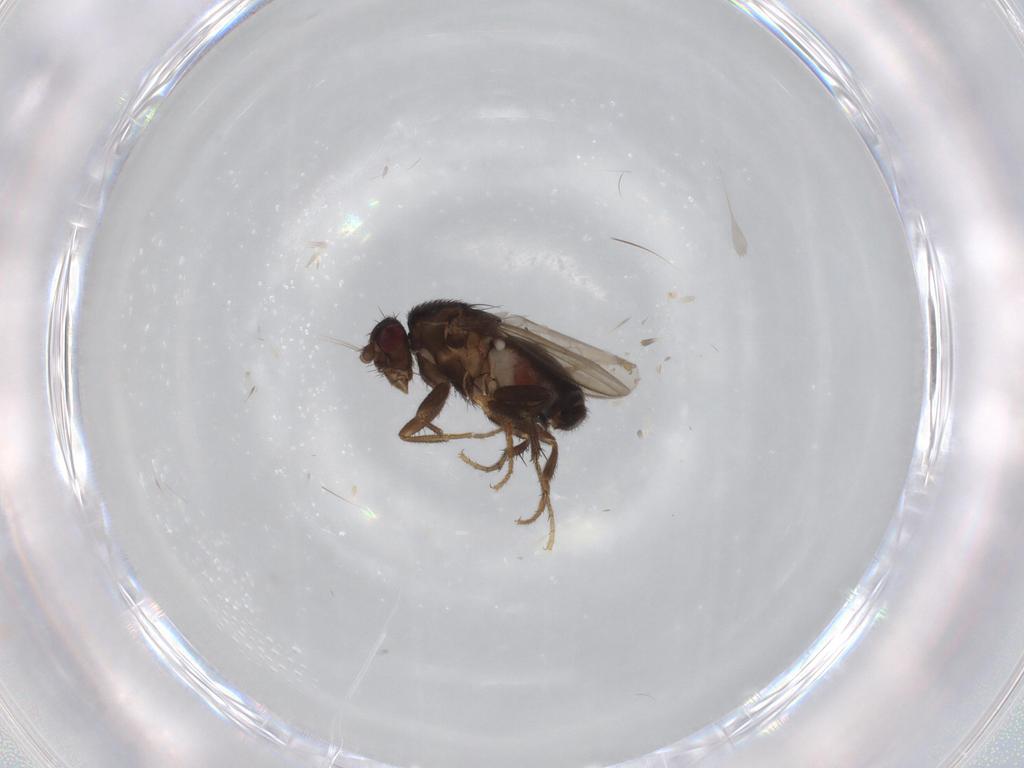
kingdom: Animalia
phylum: Arthropoda
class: Insecta
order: Diptera
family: Sphaeroceridae
